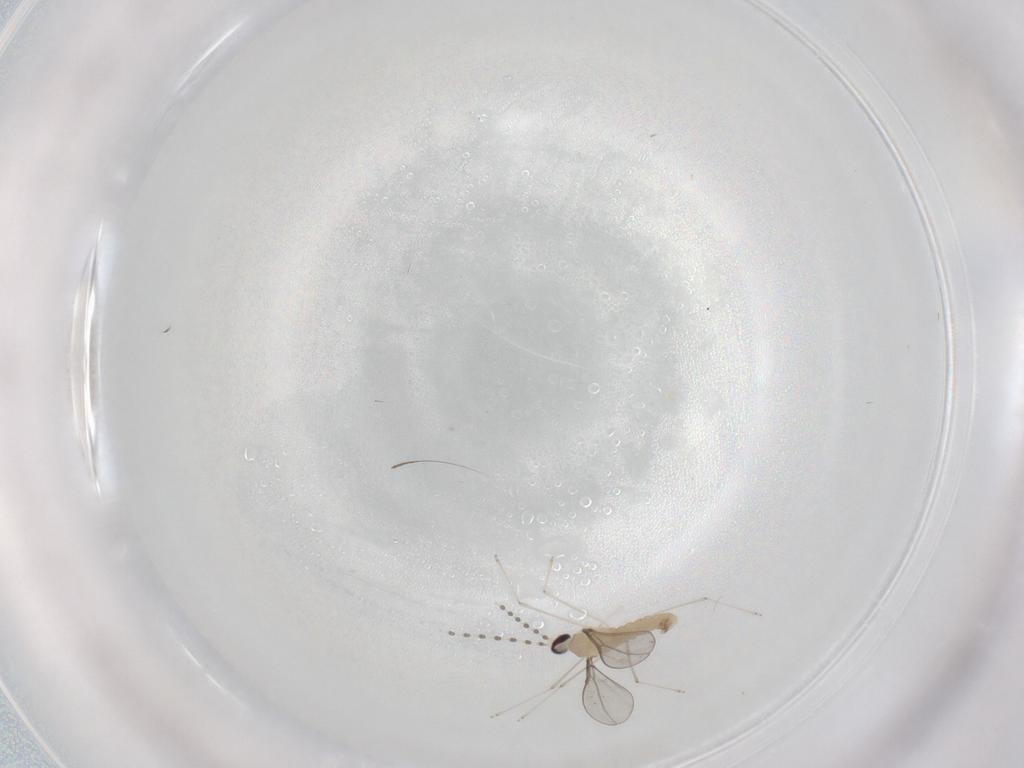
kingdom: Animalia
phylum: Arthropoda
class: Insecta
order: Diptera
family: Cecidomyiidae
